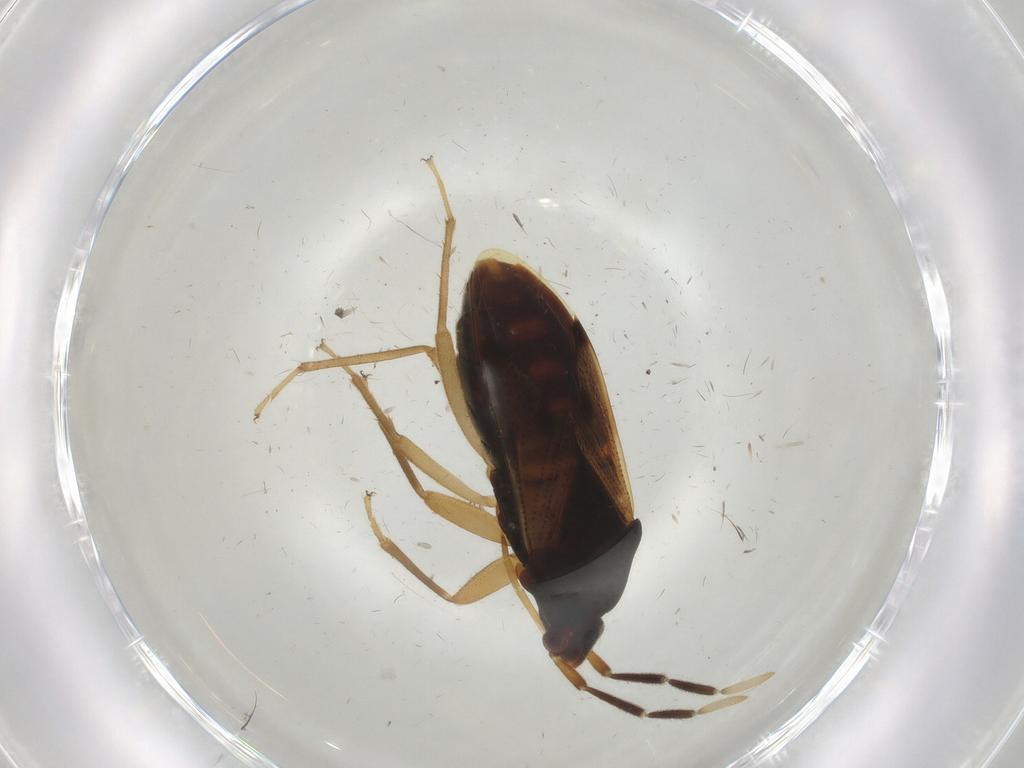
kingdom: Animalia
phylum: Arthropoda
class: Insecta
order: Hemiptera
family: Rhyparochromidae
